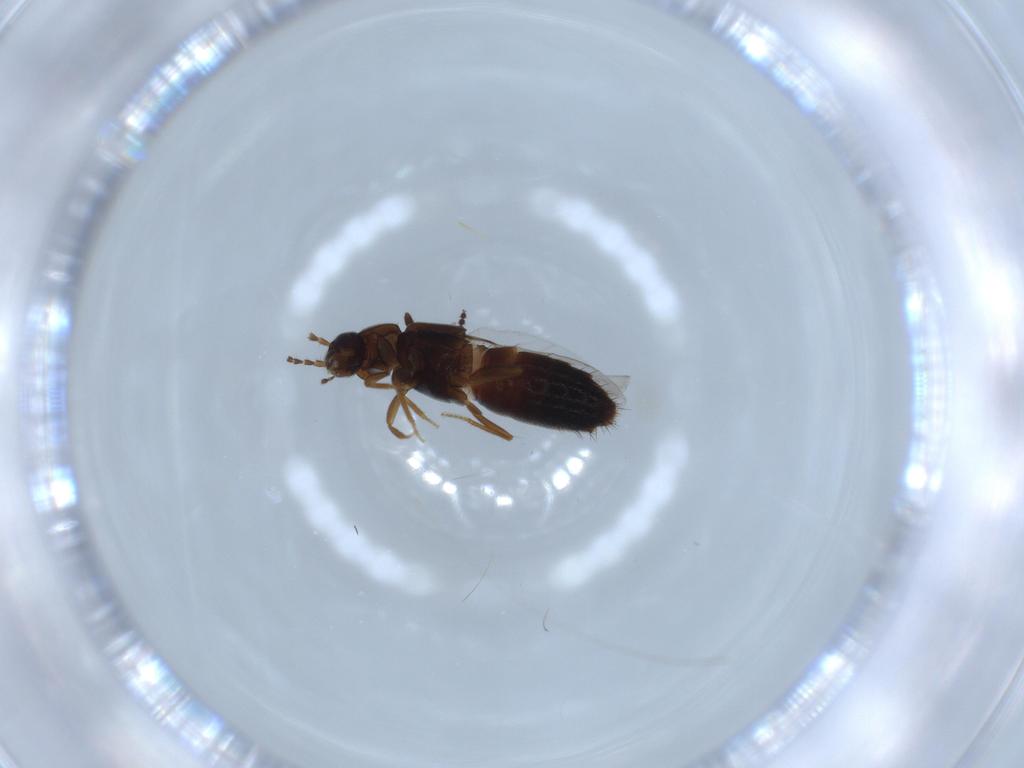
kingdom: Animalia
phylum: Arthropoda
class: Insecta
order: Coleoptera
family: Staphylinidae
